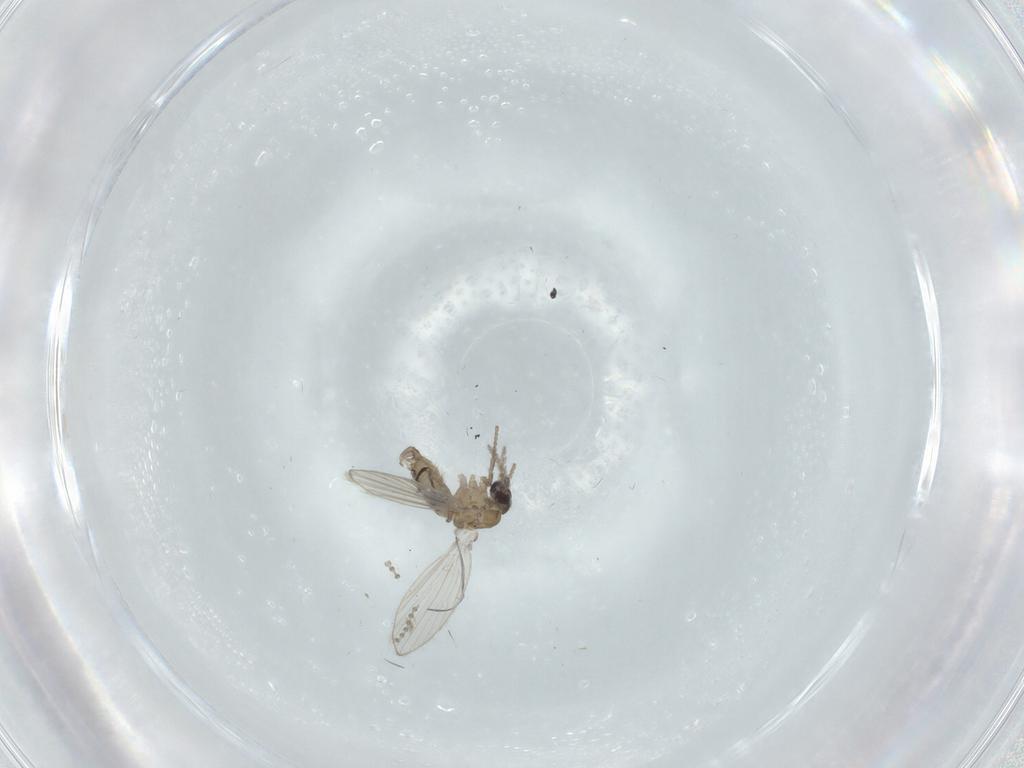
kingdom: Animalia
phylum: Arthropoda
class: Insecta
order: Diptera
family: Psychodidae
